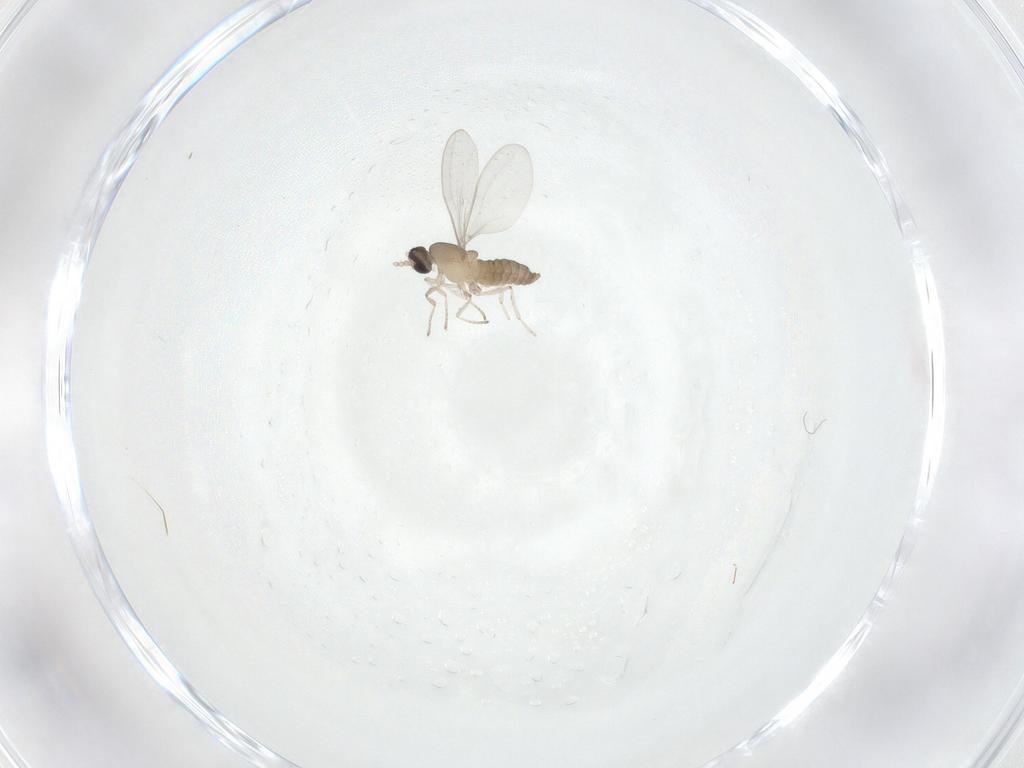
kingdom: Animalia
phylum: Arthropoda
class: Insecta
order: Diptera
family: Cecidomyiidae
